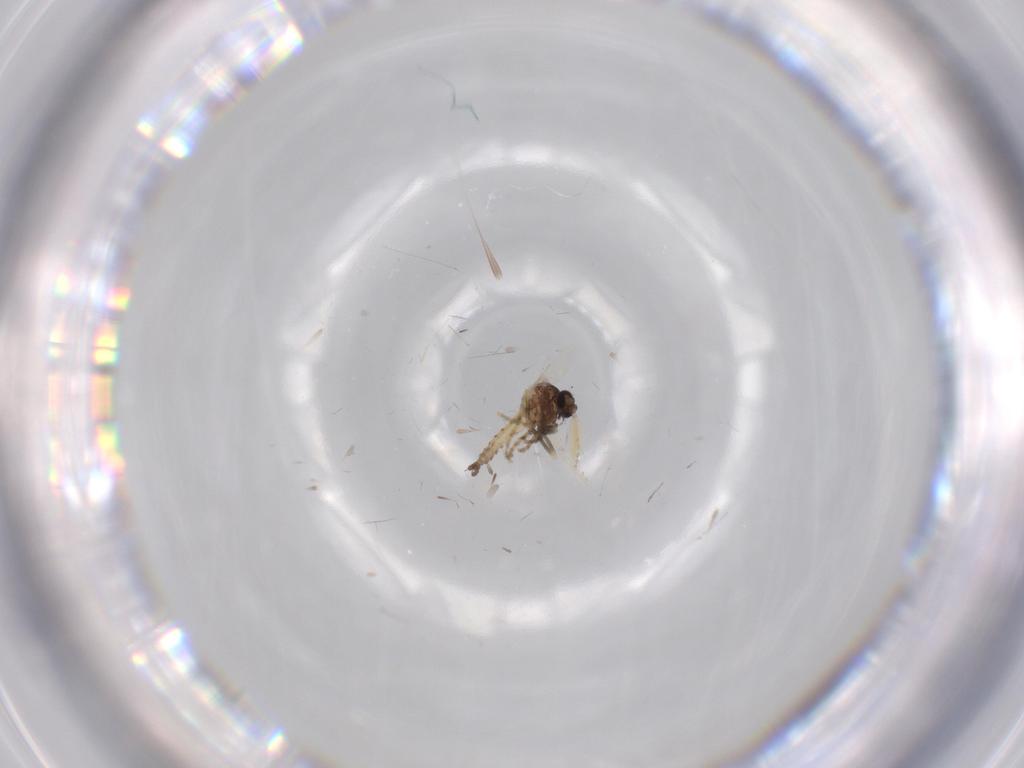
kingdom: Animalia
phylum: Arthropoda
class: Insecta
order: Diptera
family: Ceratopogonidae
